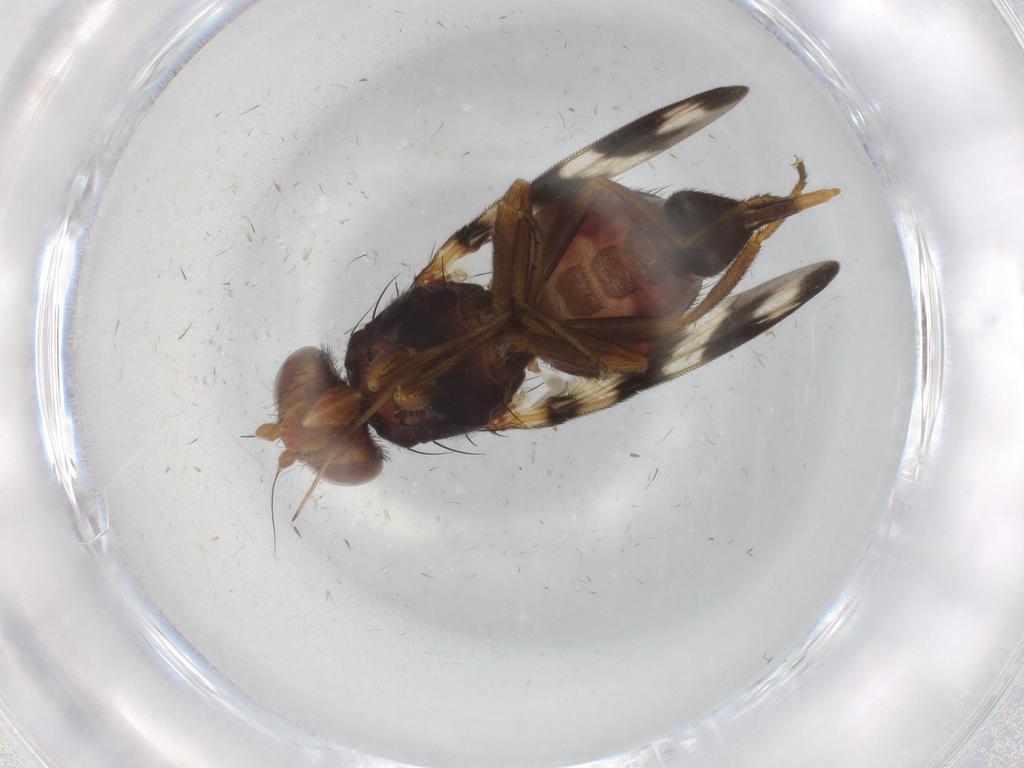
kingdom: Animalia
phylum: Arthropoda
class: Insecta
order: Diptera
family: Ulidiidae
